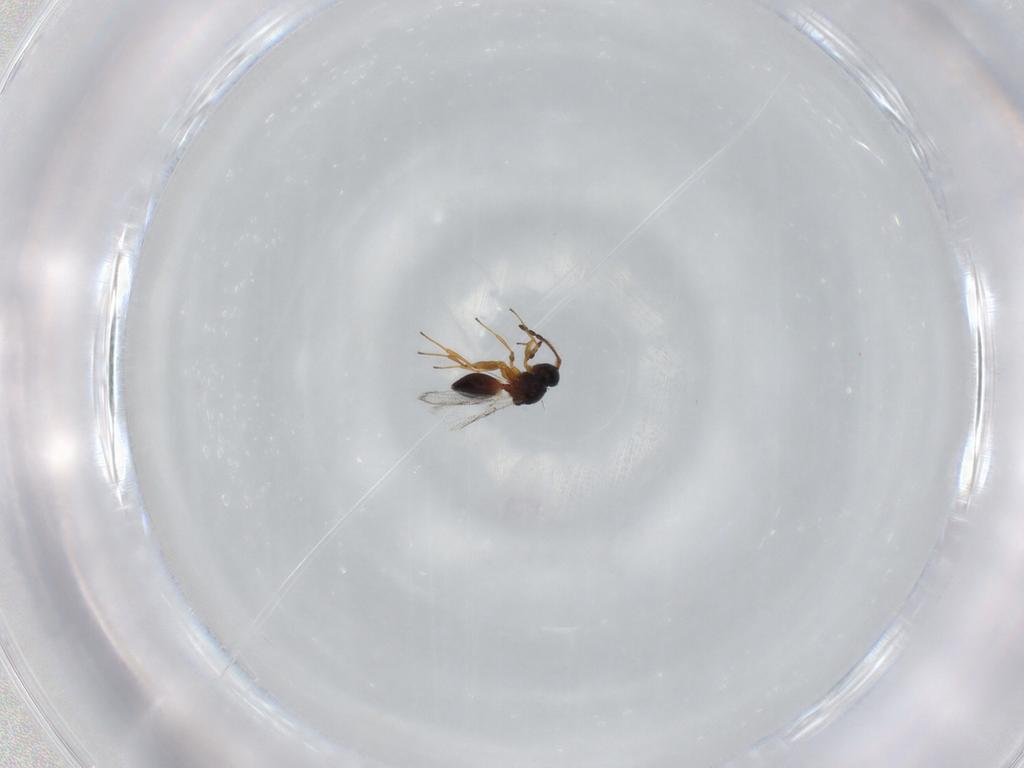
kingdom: Animalia
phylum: Arthropoda
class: Insecta
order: Hymenoptera
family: Figitidae
